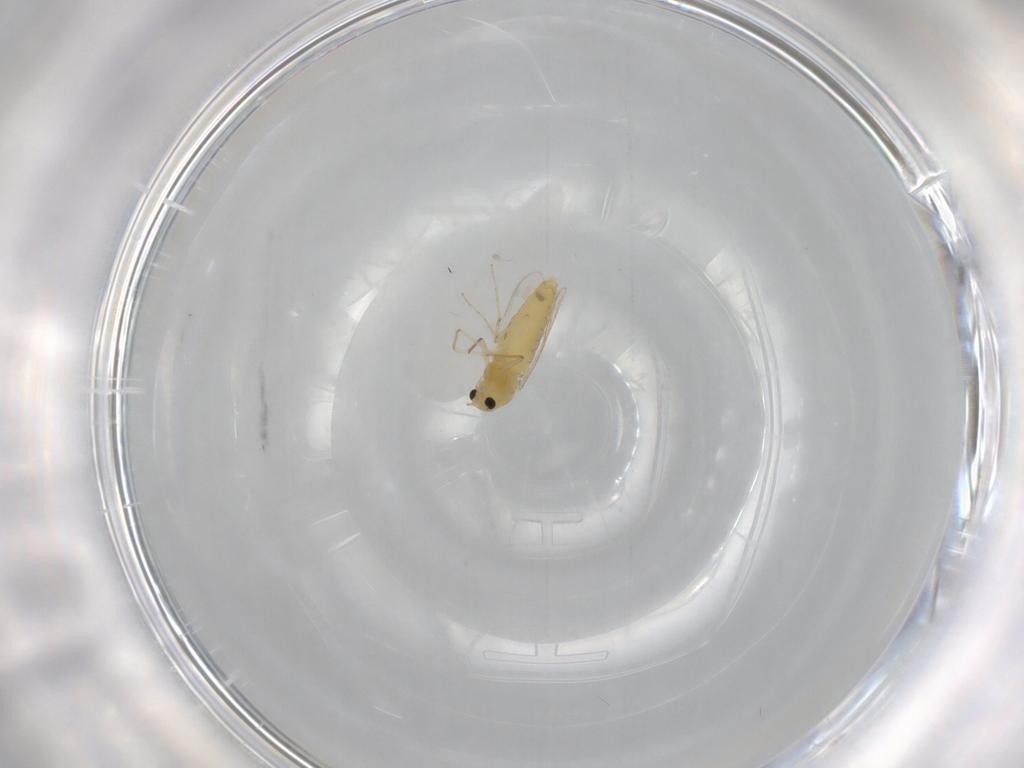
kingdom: Animalia
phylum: Arthropoda
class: Insecta
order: Diptera
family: Chironomidae
